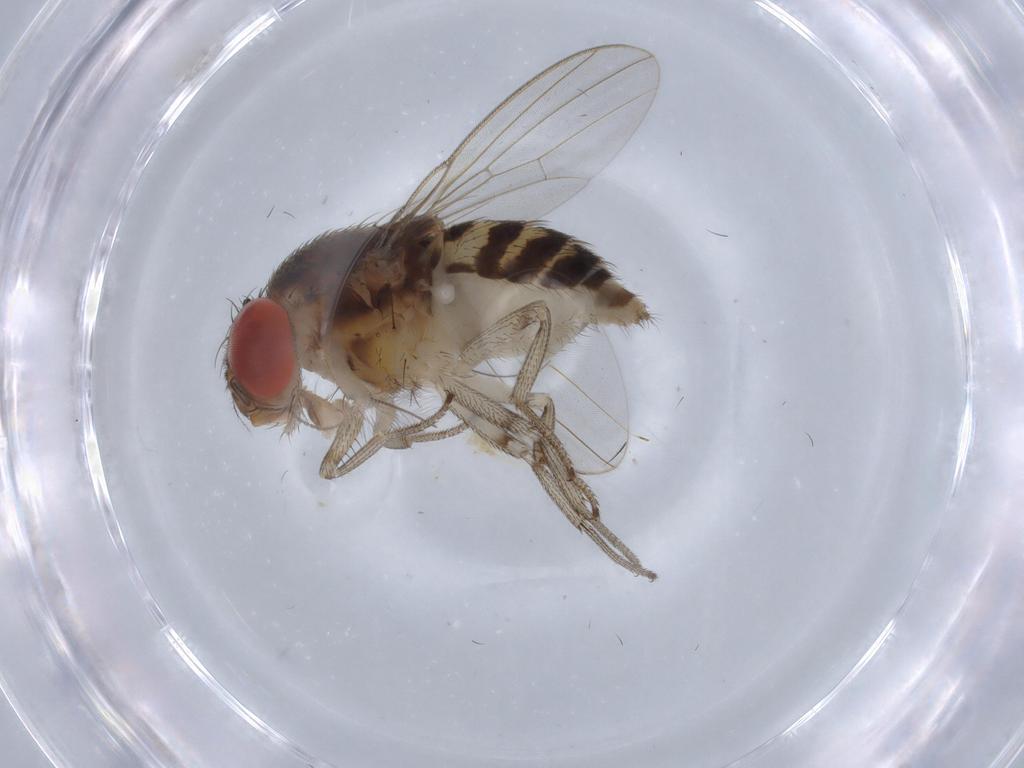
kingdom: Animalia
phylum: Arthropoda
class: Insecta
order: Diptera
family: Drosophilidae
